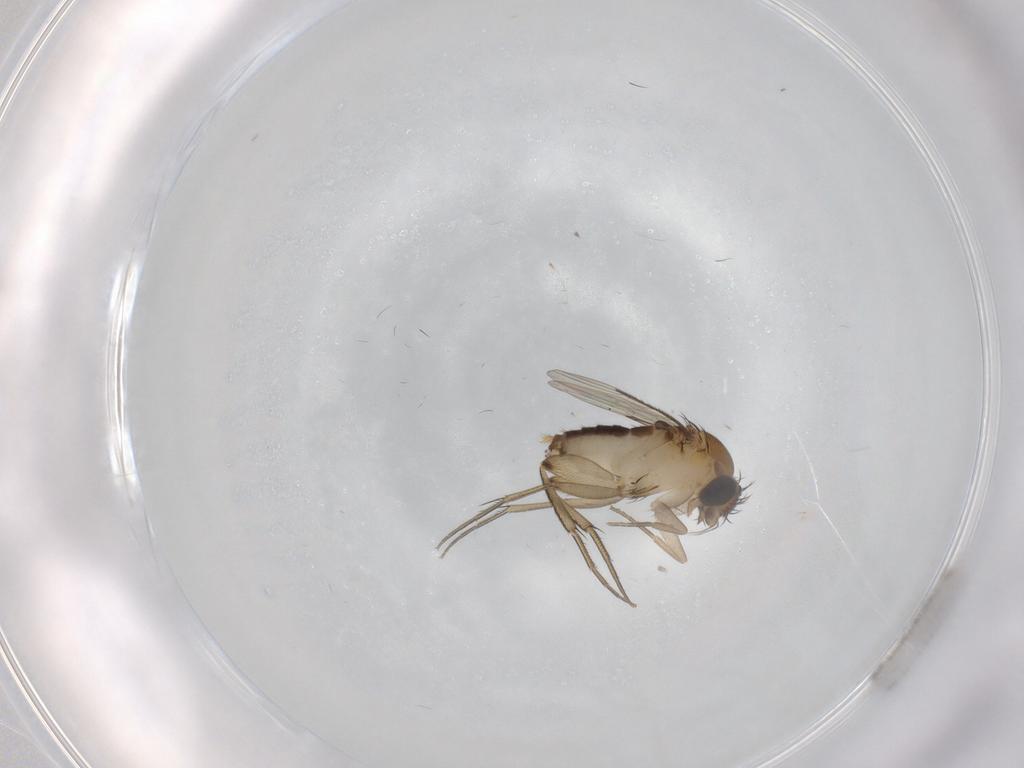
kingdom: Animalia
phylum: Arthropoda
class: Insecta
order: Diptera
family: Phoridae
